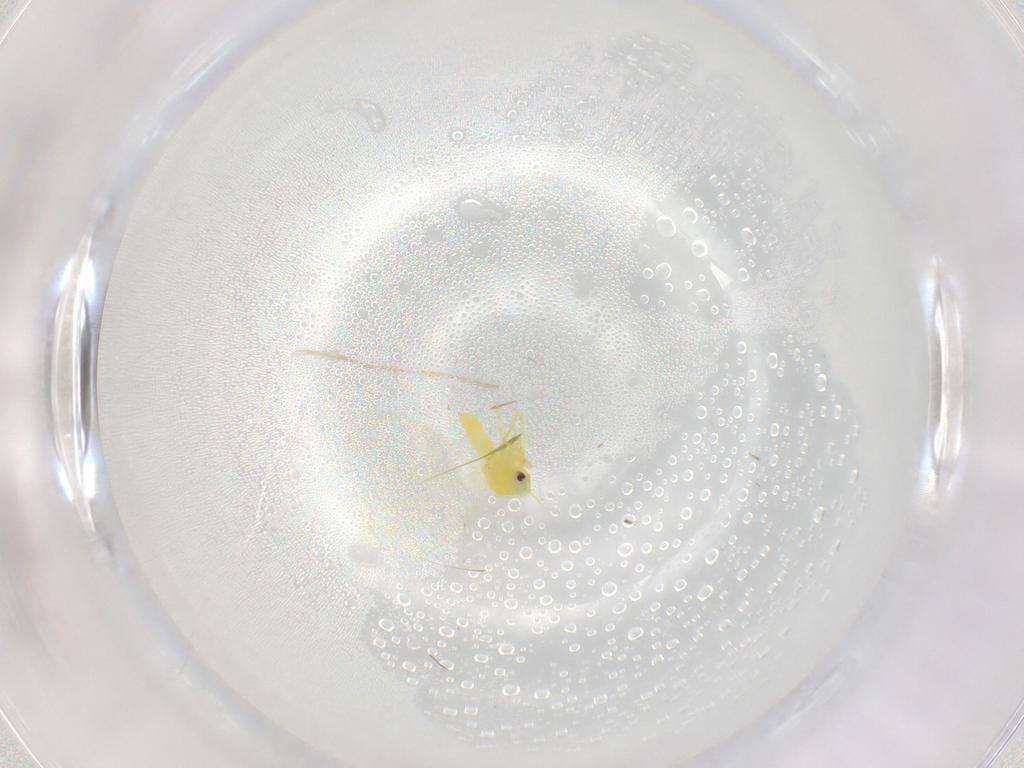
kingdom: Animalia
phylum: Arthropoda
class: Insecta
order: Hemiptera
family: Aleyrodidae
